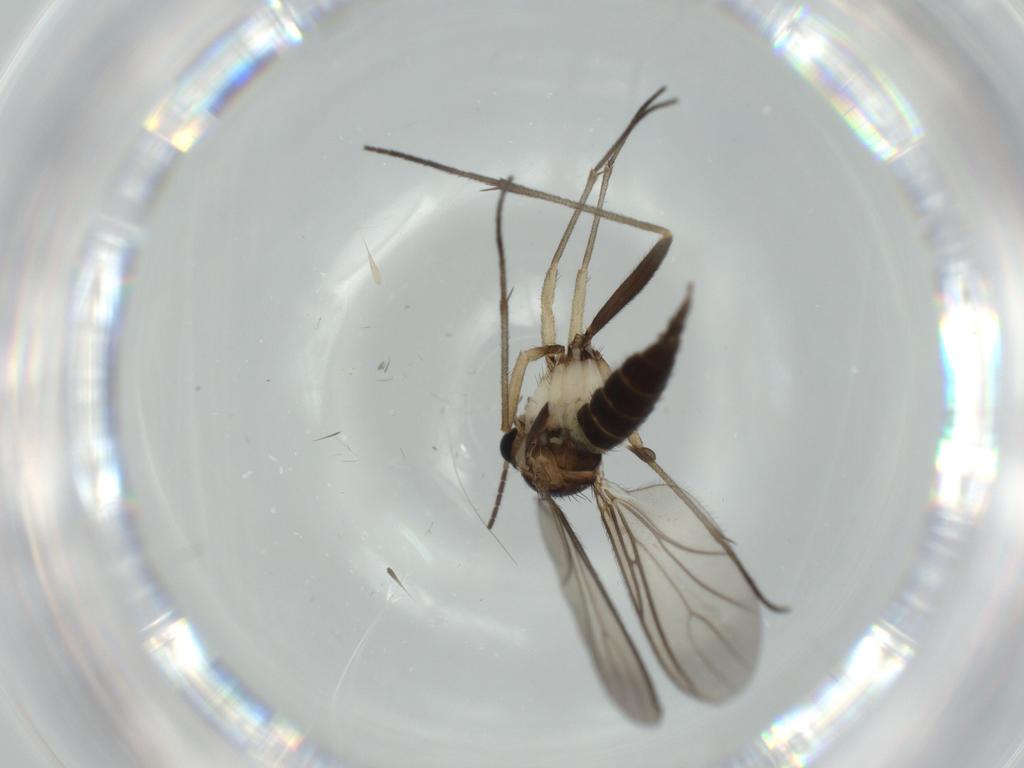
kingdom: Animalia
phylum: Arthropoda
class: Insecta
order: Diptera
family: Sciaridae
